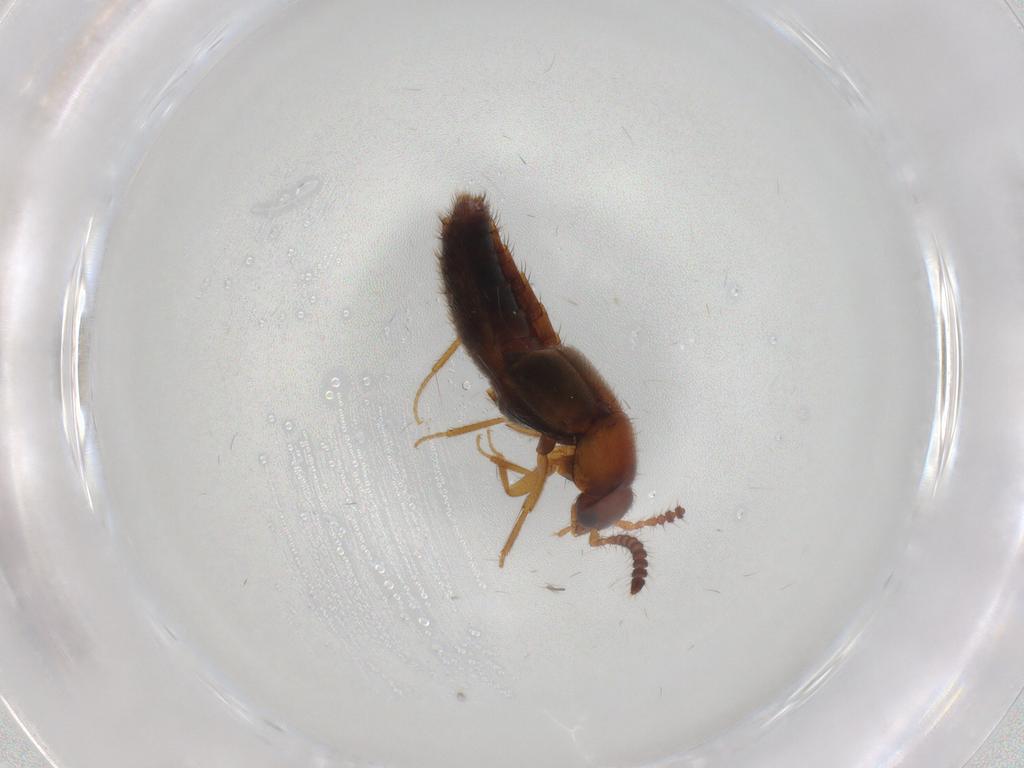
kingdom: Animalia
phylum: Arthropoda
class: Insecta
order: Coleoptera
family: Staphylinidae
